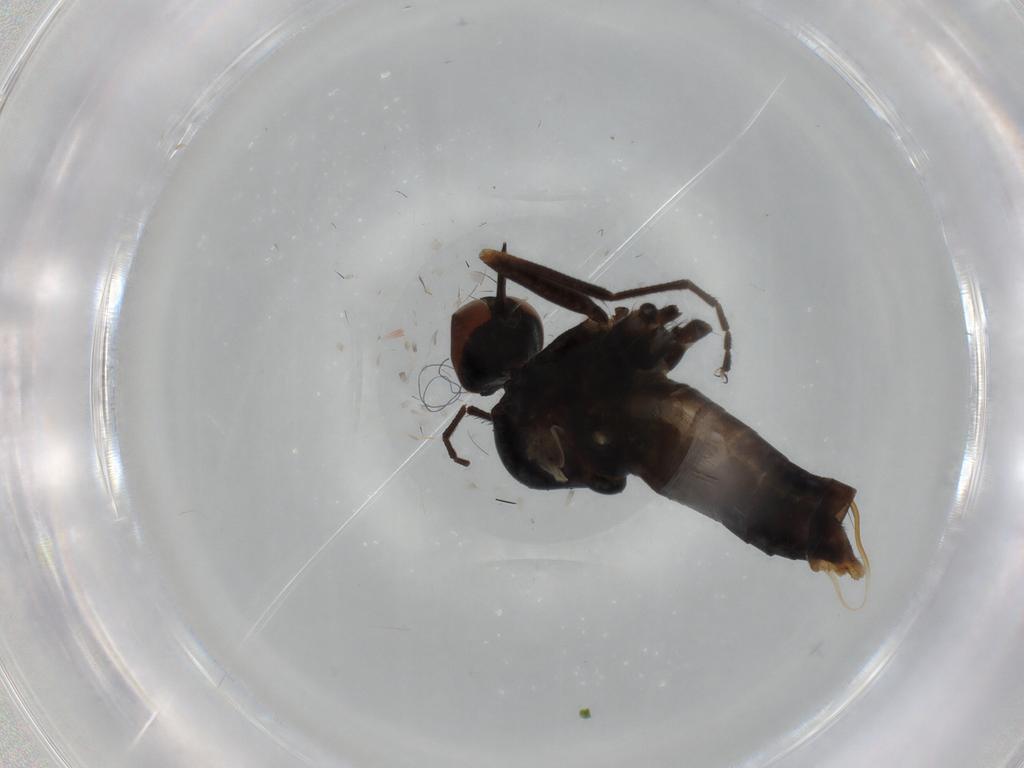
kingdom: Animalia
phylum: Arthropoda
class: Insecta
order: Diptera
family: Empididae
